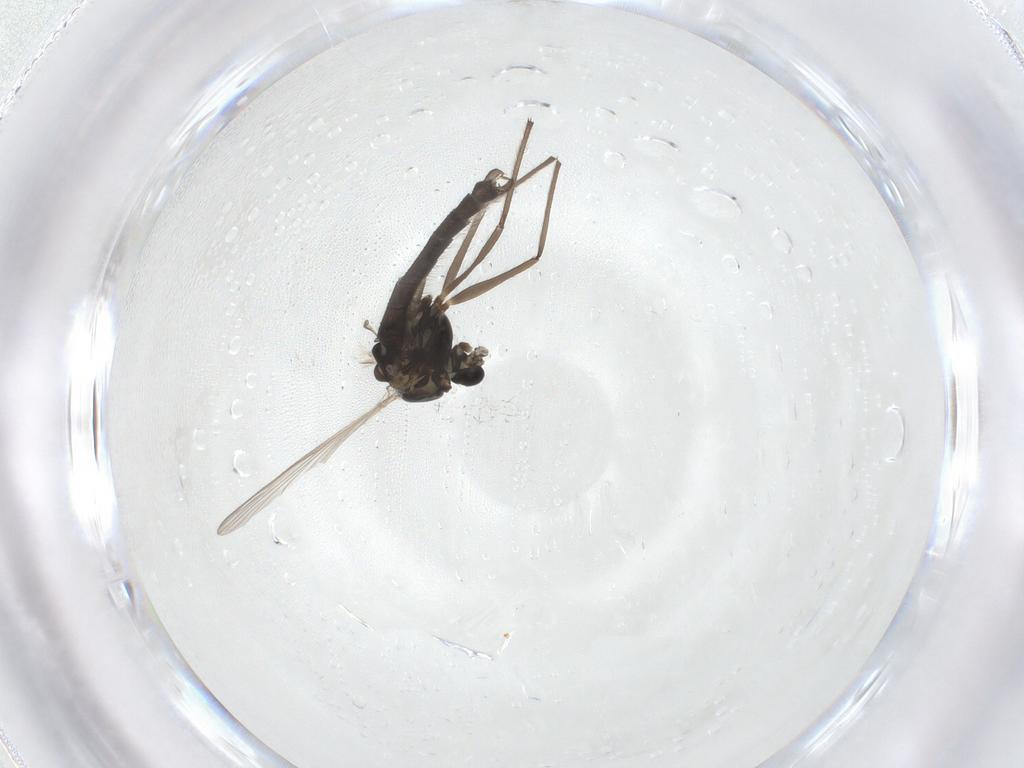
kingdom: Animalia
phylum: Arthropoda
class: Insecta
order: Diptera
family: Chironomidae
